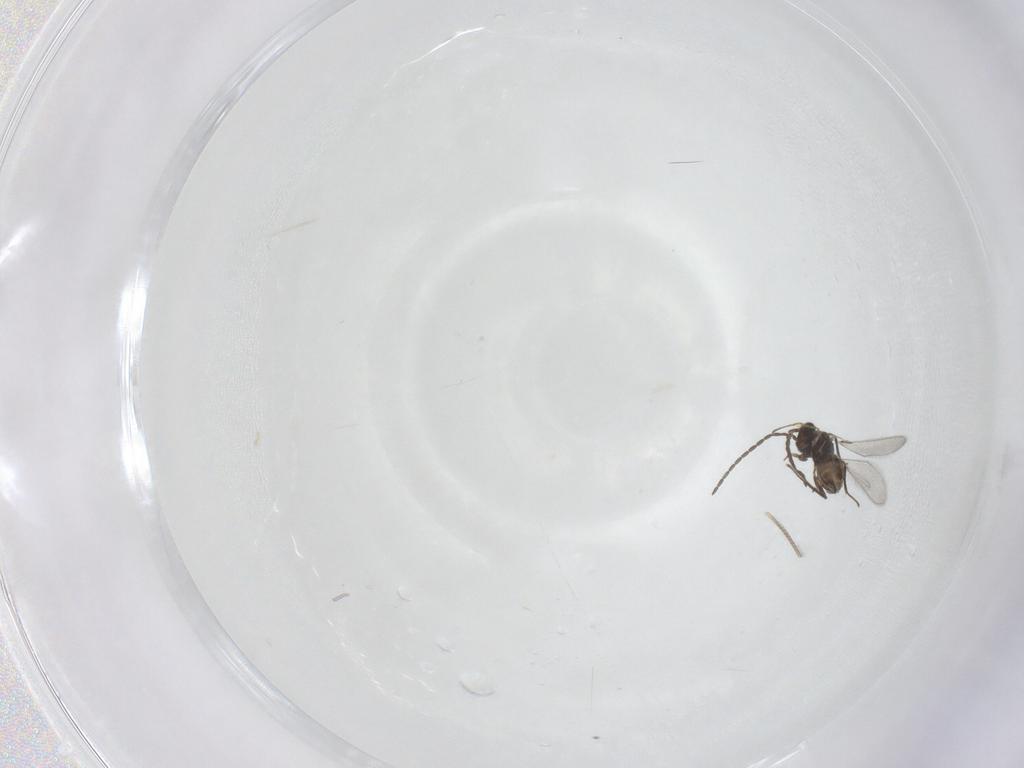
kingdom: Animalia
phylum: Arthropoda
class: Insecta
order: Hymenoptera
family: Mymaridae
